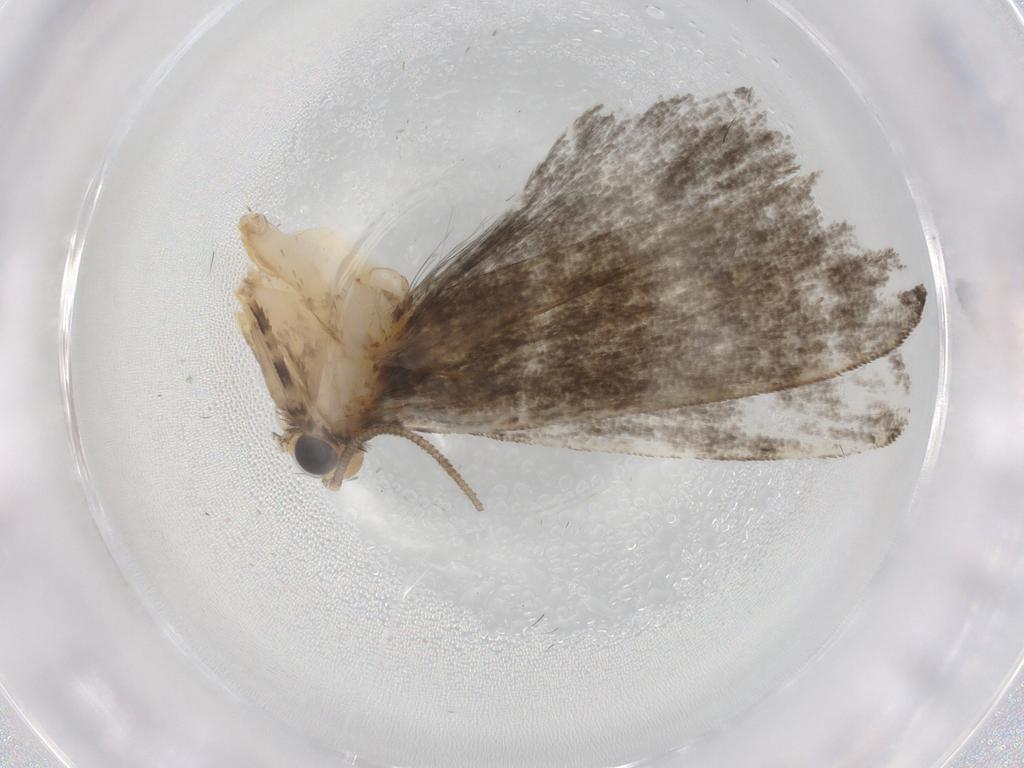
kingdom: Animalia
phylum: Arthropoda
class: Insecta
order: Lepidoptera
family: Tineidae
